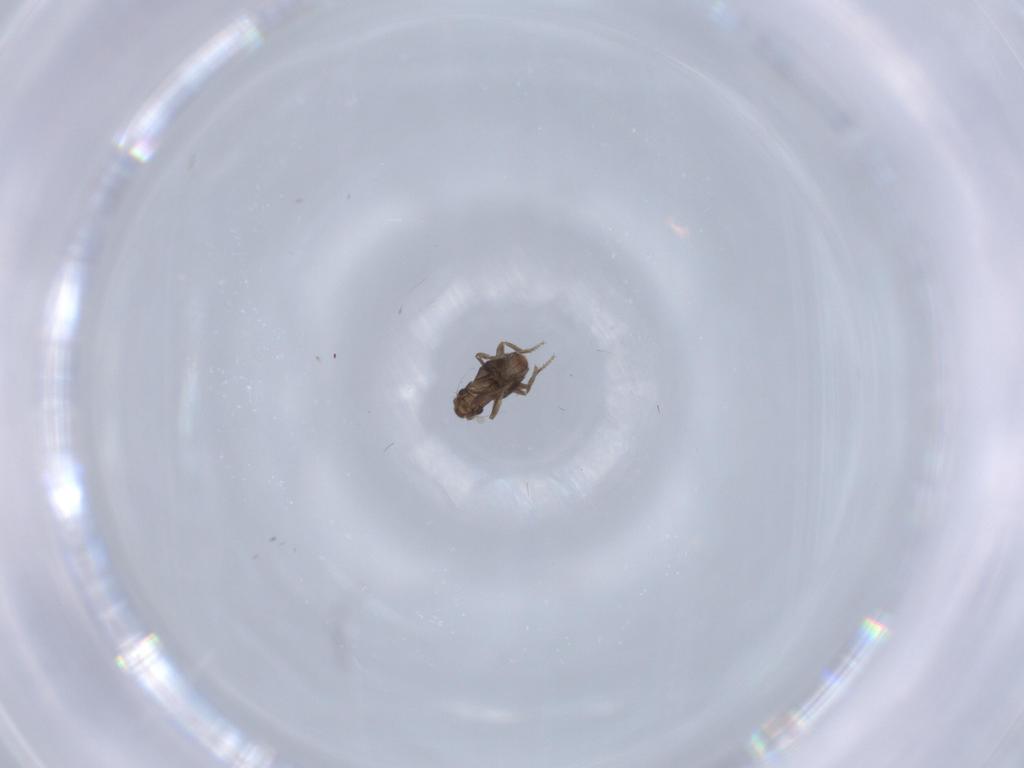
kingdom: Animalia
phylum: Arthropoda
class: Insecta
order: Diptera
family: Phoridae
